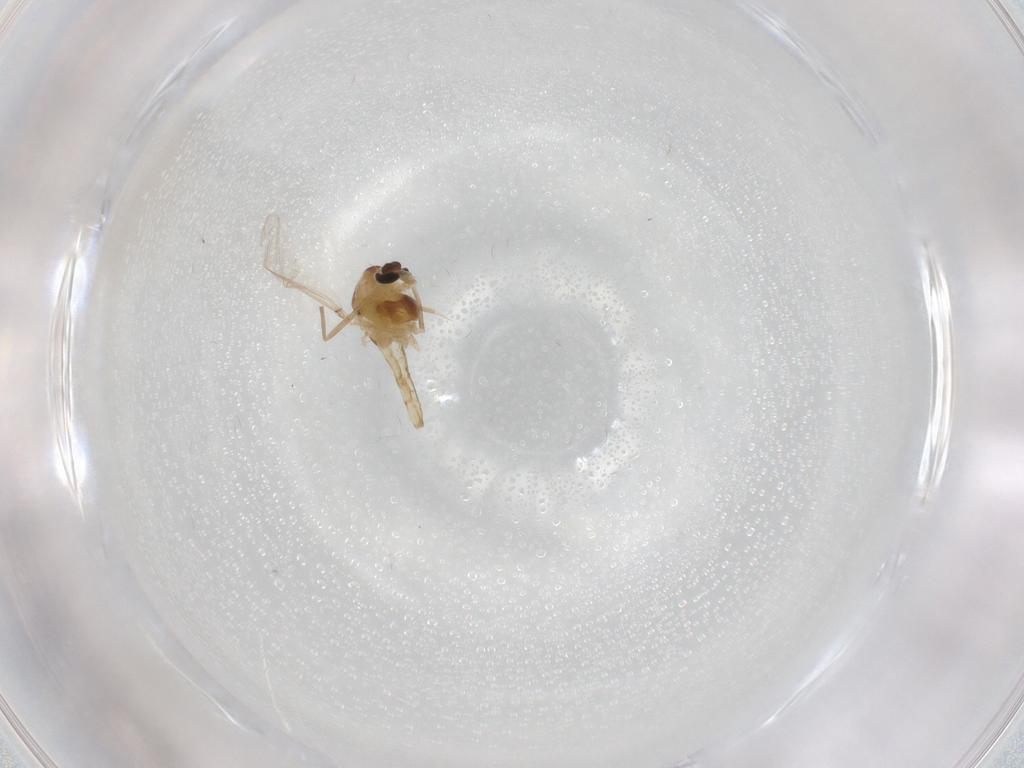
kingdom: Animalia
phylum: Arthropoda
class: Insecta
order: Diptera
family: Chironomidae
